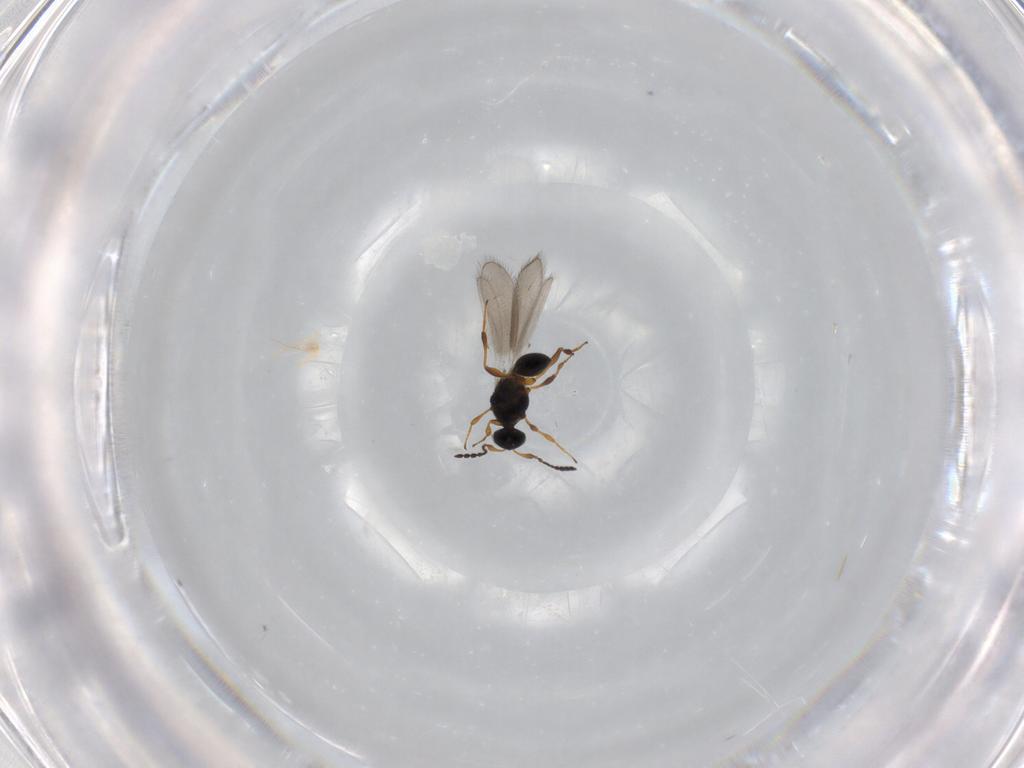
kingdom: Animalia
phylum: Arthropoda
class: Insecta
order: Hymenoptera
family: Platygastridae
